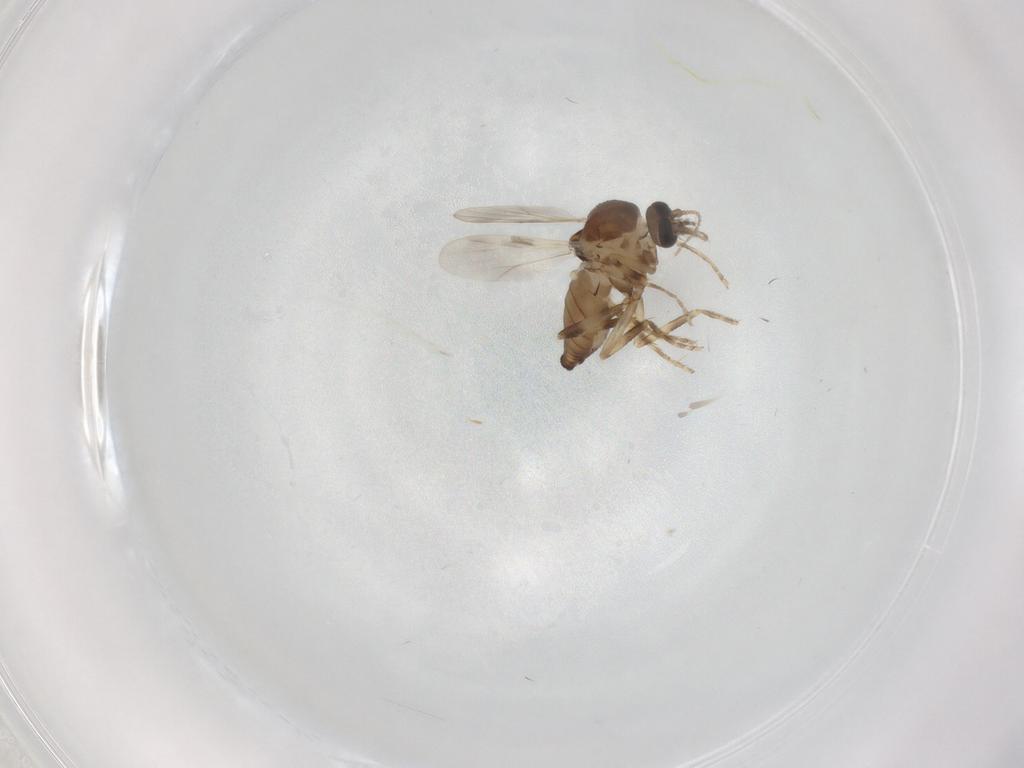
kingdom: Animalia
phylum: Arthropoda
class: Insecta
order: Diptera
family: Ceratopogonidae
